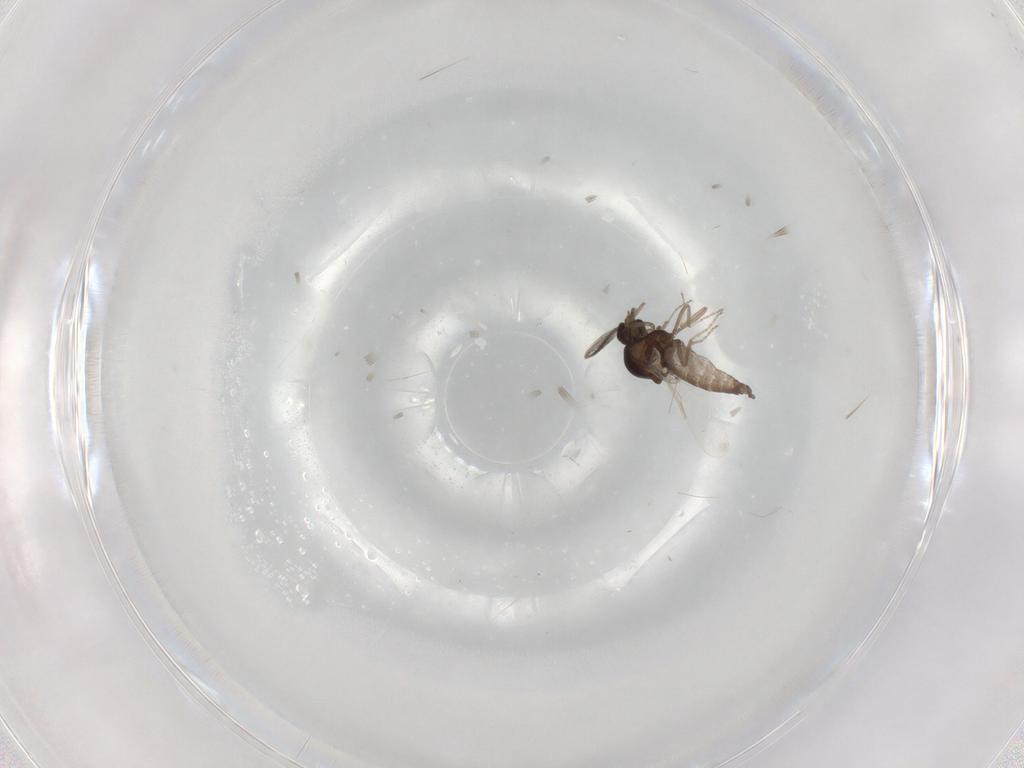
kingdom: Animalia
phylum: Arthropoda
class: Insecta
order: Diptera
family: Ceratopogonidae
